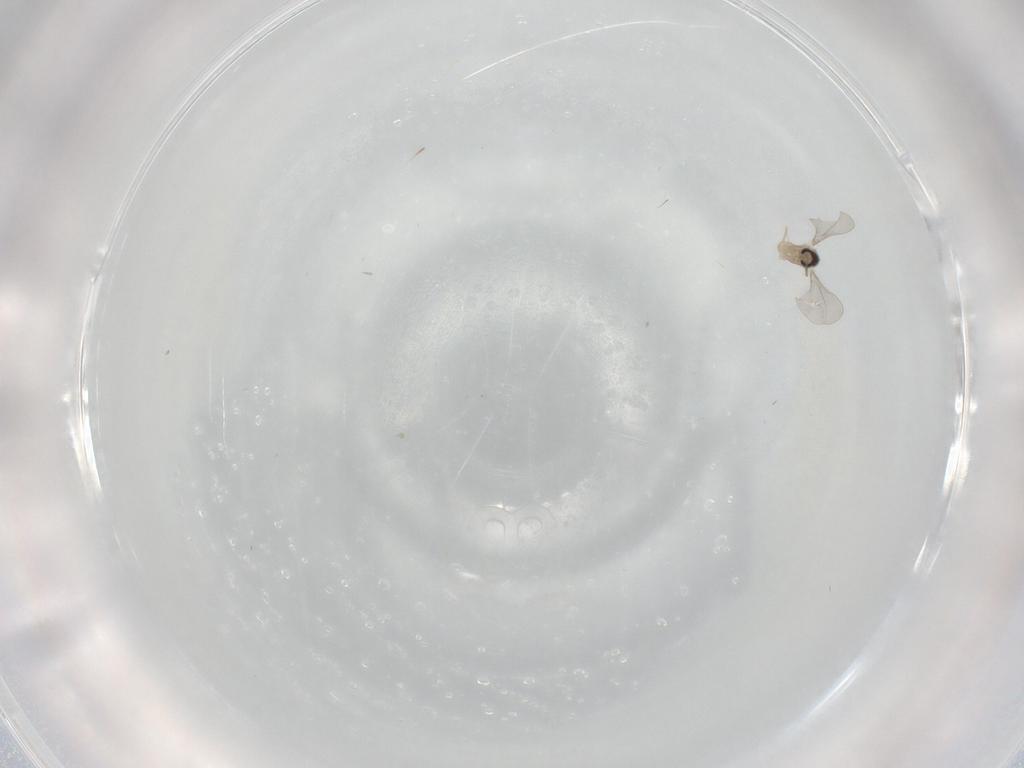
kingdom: Animalia
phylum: Arthropoda
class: Insecta
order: Diptera
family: Cecidomyiidae
